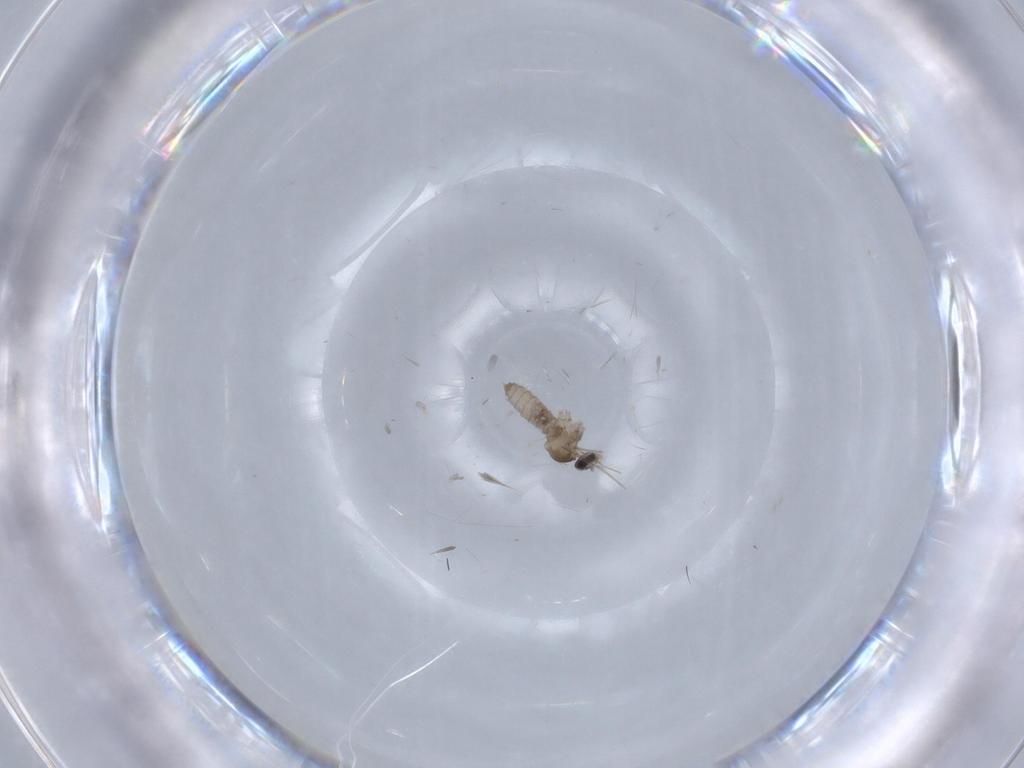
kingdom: Animalia
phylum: Arthropoda
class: Insecta
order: Diptera
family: Cecidomyiidae
